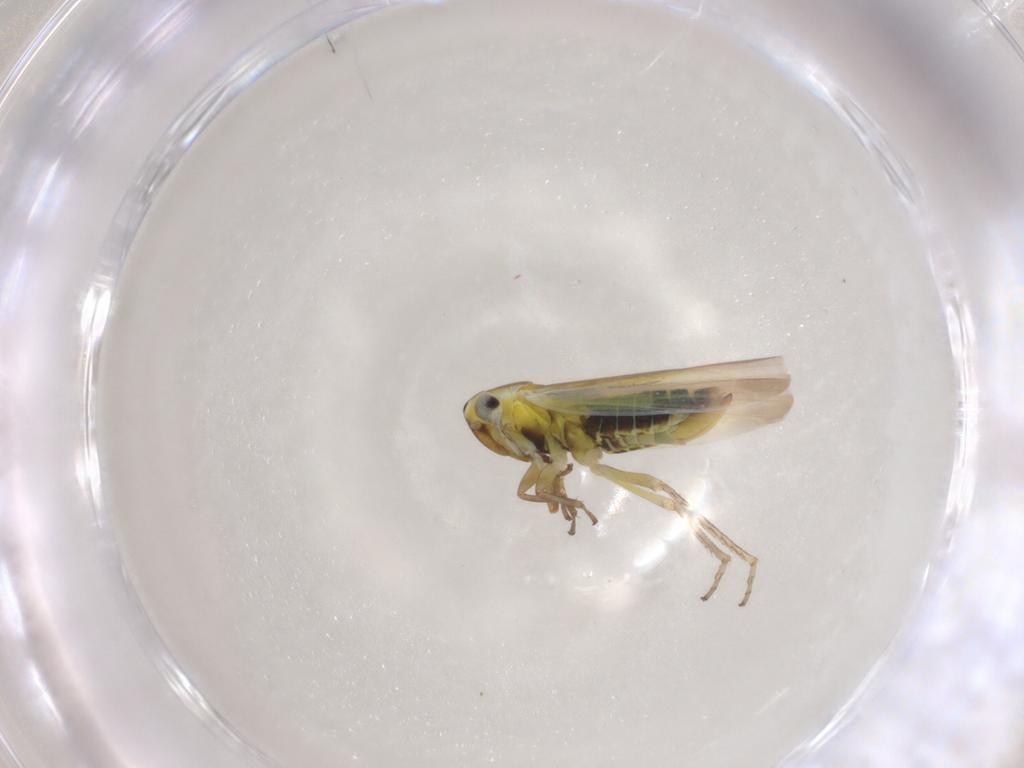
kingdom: Animalia
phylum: Arthropoda
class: Insecta
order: Hemiptera
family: Cicadellidae
